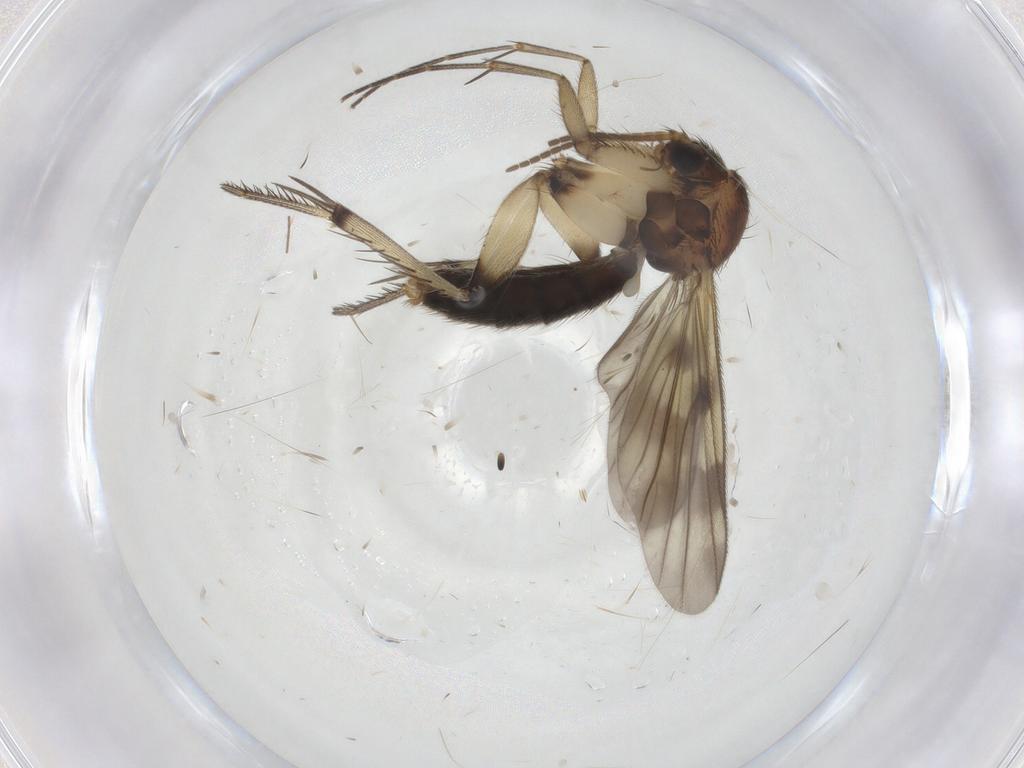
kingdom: Animalia
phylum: Arthropoda
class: Insecta
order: Diptera
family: Mycetophilidae
